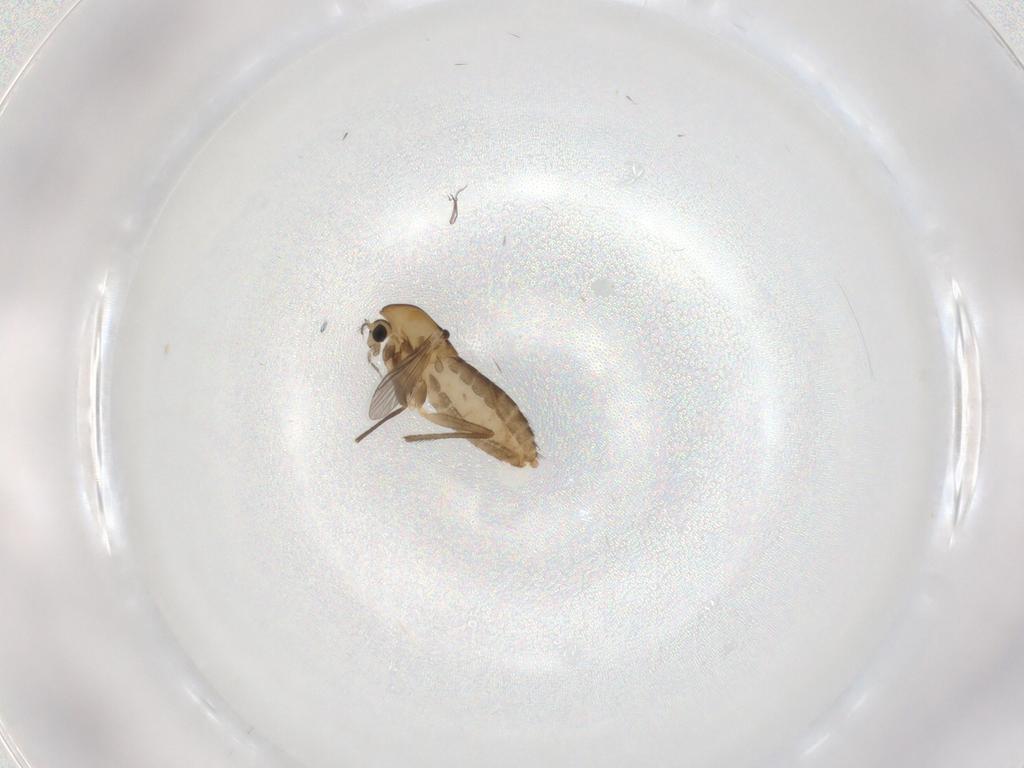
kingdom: Animalia
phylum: Arthropoda
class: Insecta
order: Diptera
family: Chironomidae
